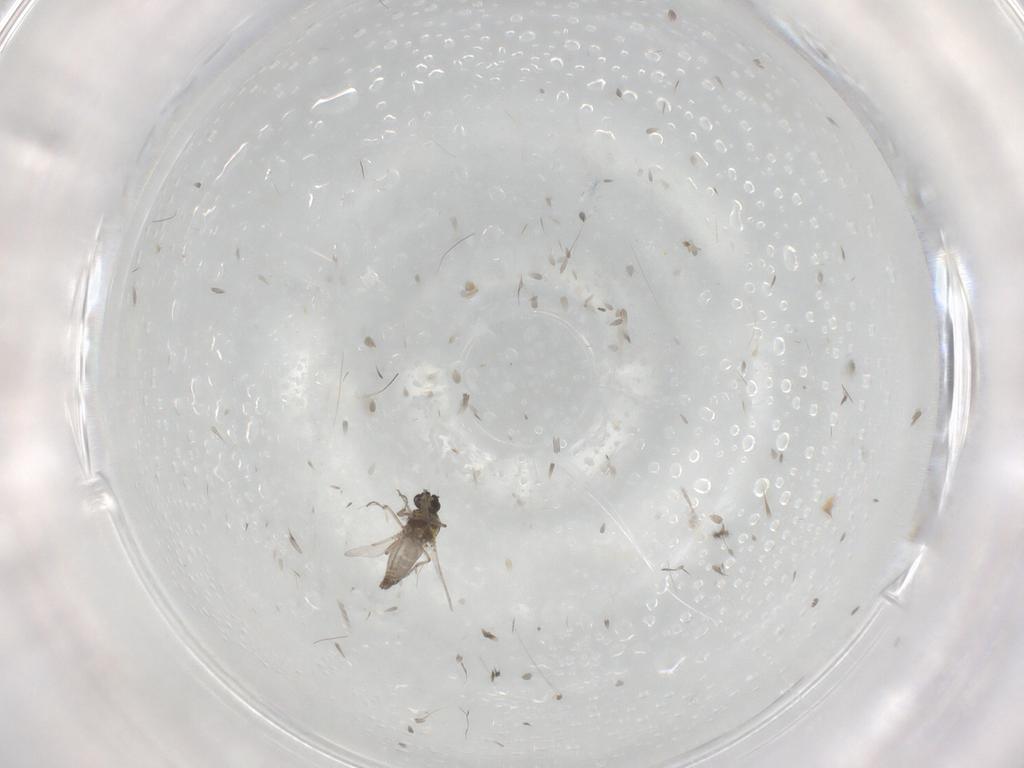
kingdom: Animalia
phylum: Arthropoda
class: Insecta
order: Diptera
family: Ceratopogonidae
